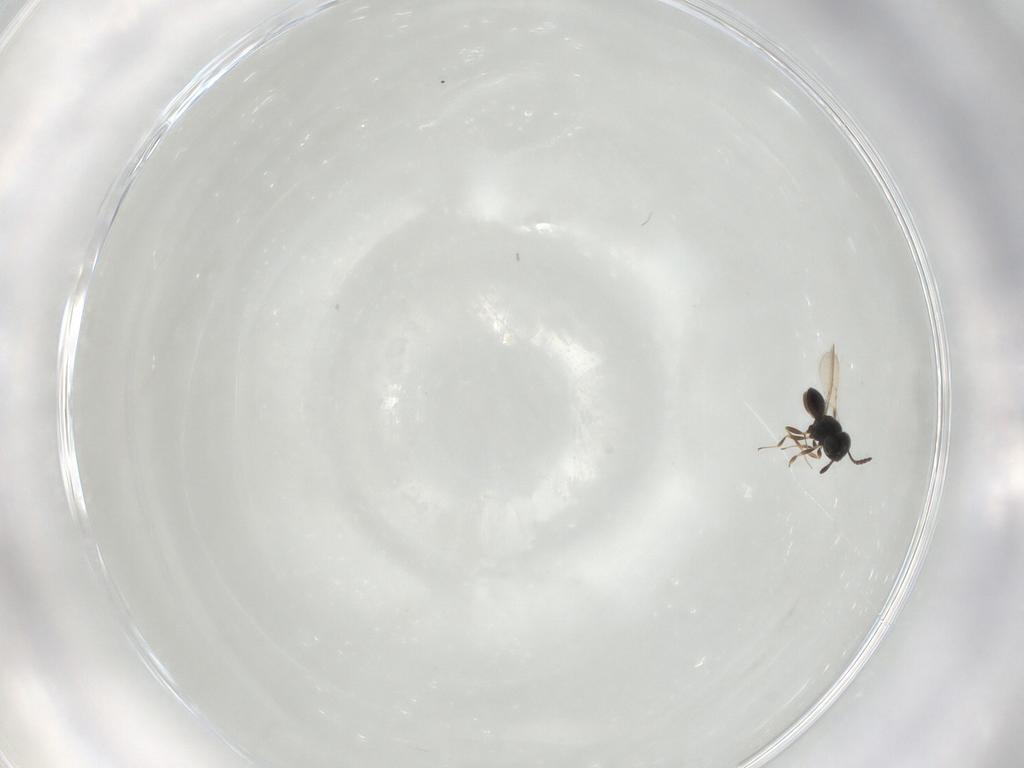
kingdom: Animalia
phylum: Arthropoda
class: Insecta
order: Hymenoptera
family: Scelionidae
